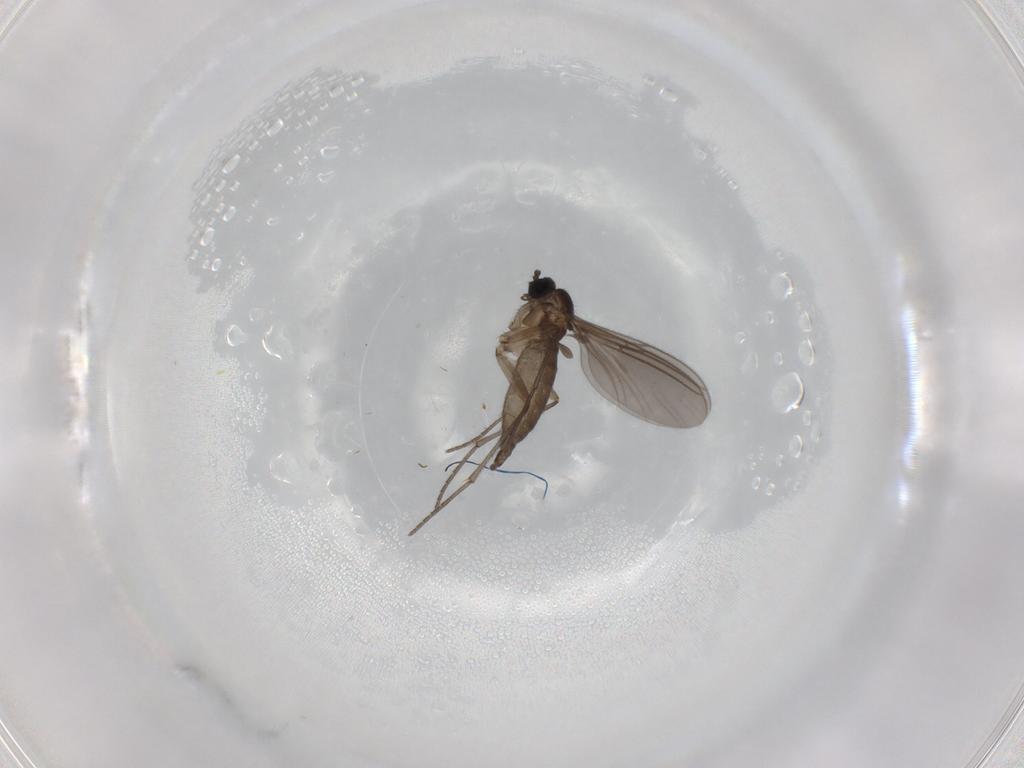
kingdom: Animalia
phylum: Arthropoda
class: Insecta
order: Diptera
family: Sciaridae
